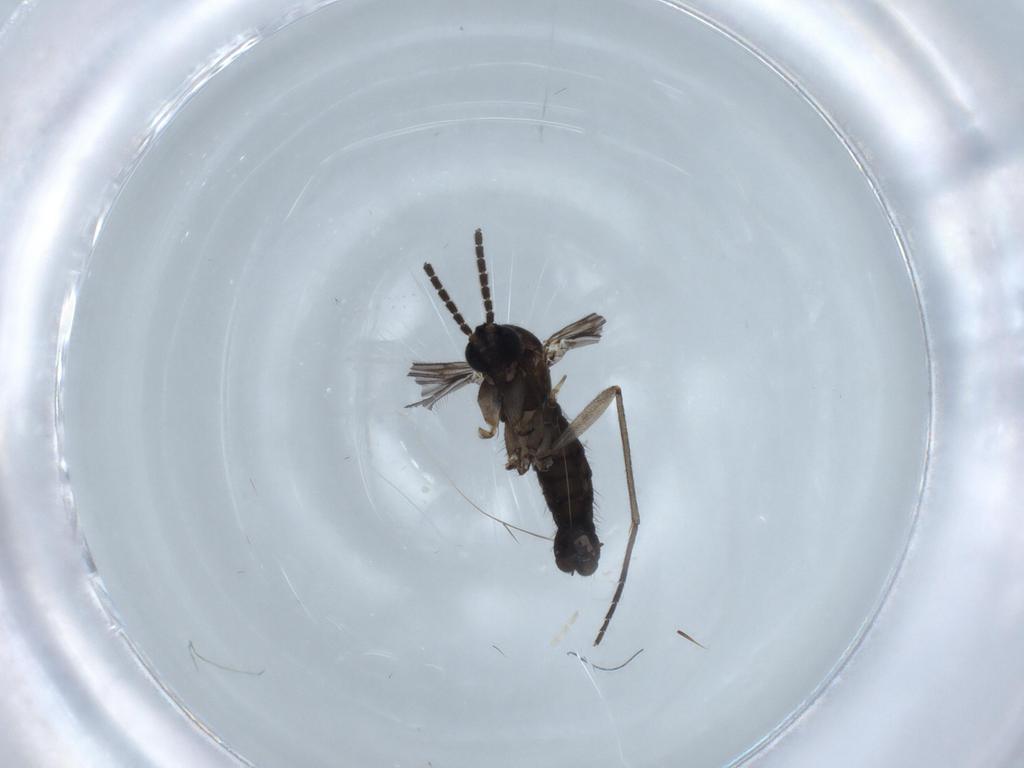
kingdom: Animalia
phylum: Arthropoda
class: Insecta
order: Diptera
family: Sciaridae
